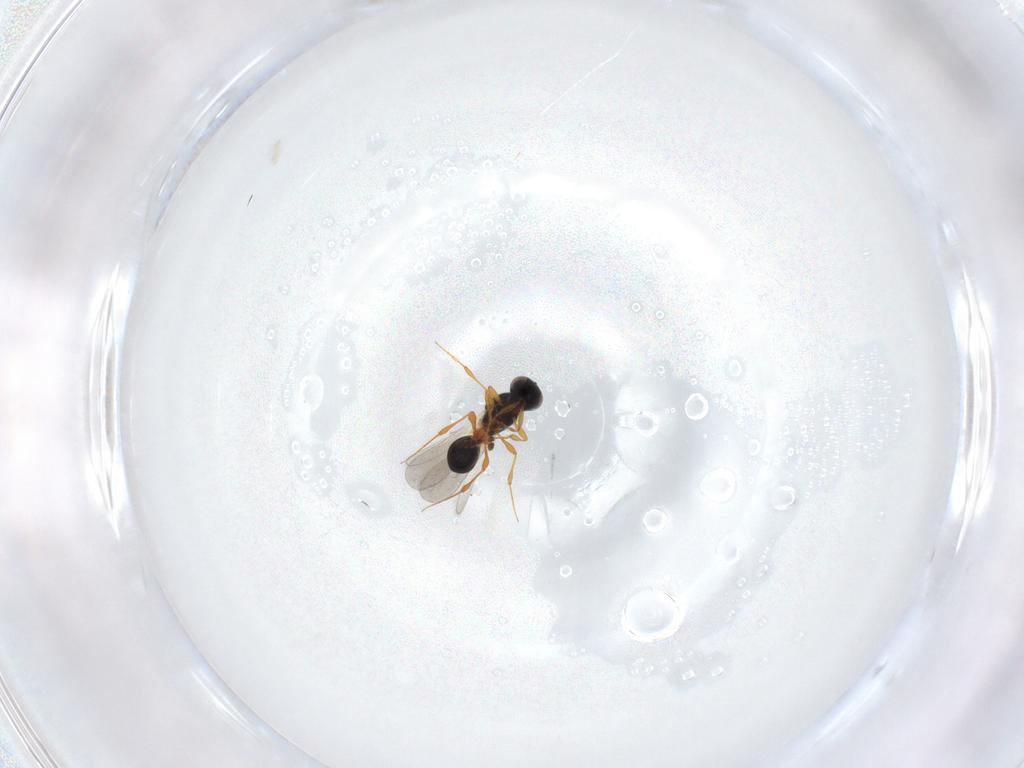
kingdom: Animalia
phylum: Arthropoda
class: Insecta
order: Hymenoptera
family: Platygastridae
